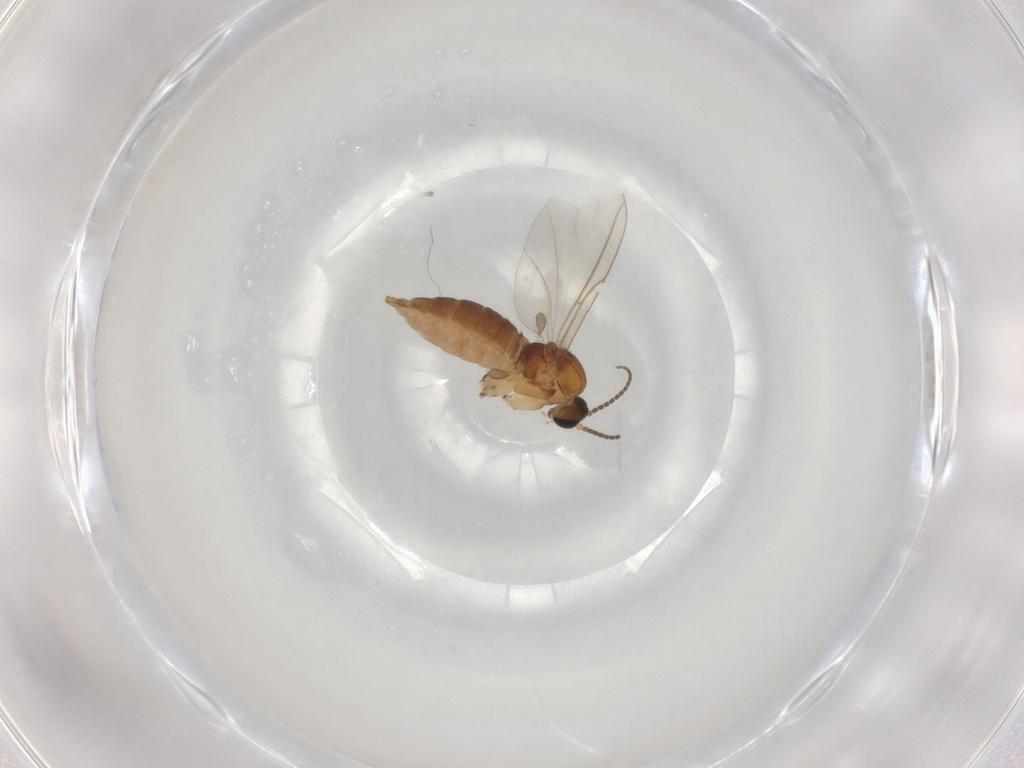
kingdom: Animalia
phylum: Arthropoda
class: Insecta
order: Diptera
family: Sciaridae
